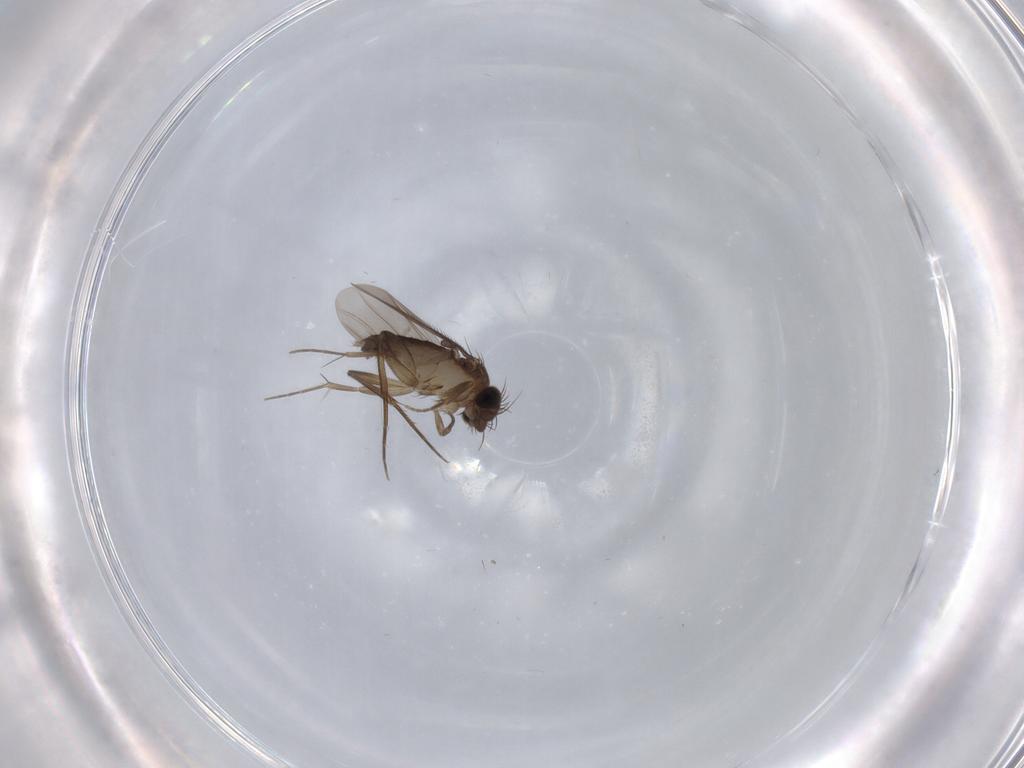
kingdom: Animalia
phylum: Arthropoda
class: Insecta
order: Diptera
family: Phoridae
